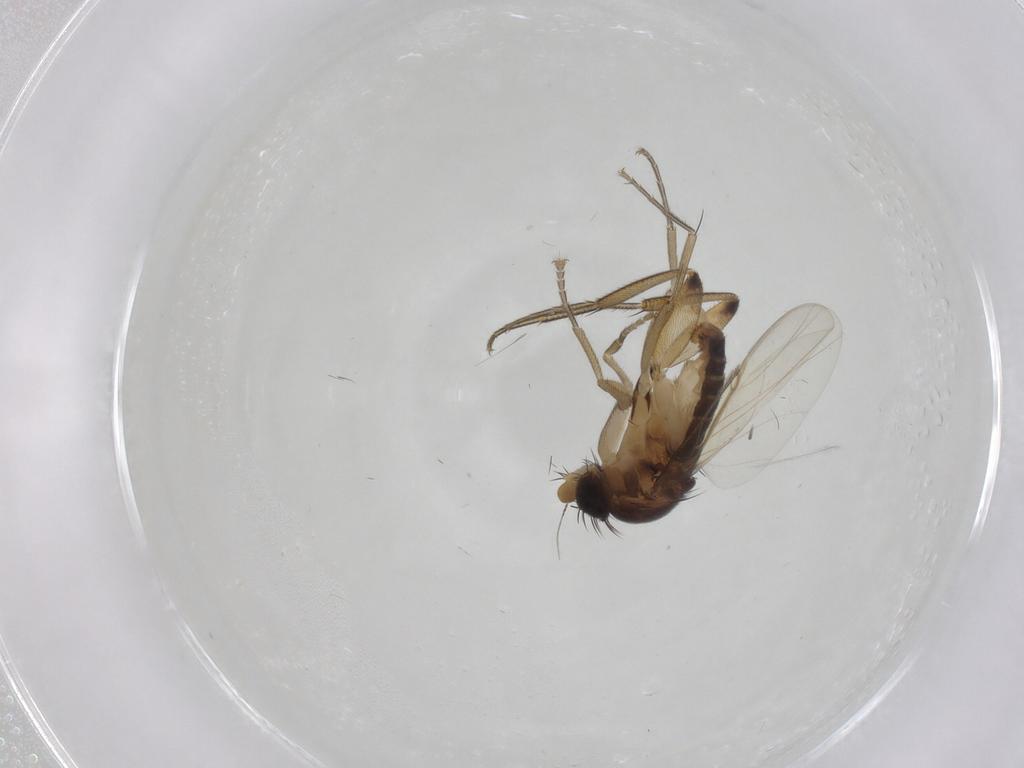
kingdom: Animalia
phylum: Arthropoda
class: Insecta
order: Diptera
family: Phoridae
